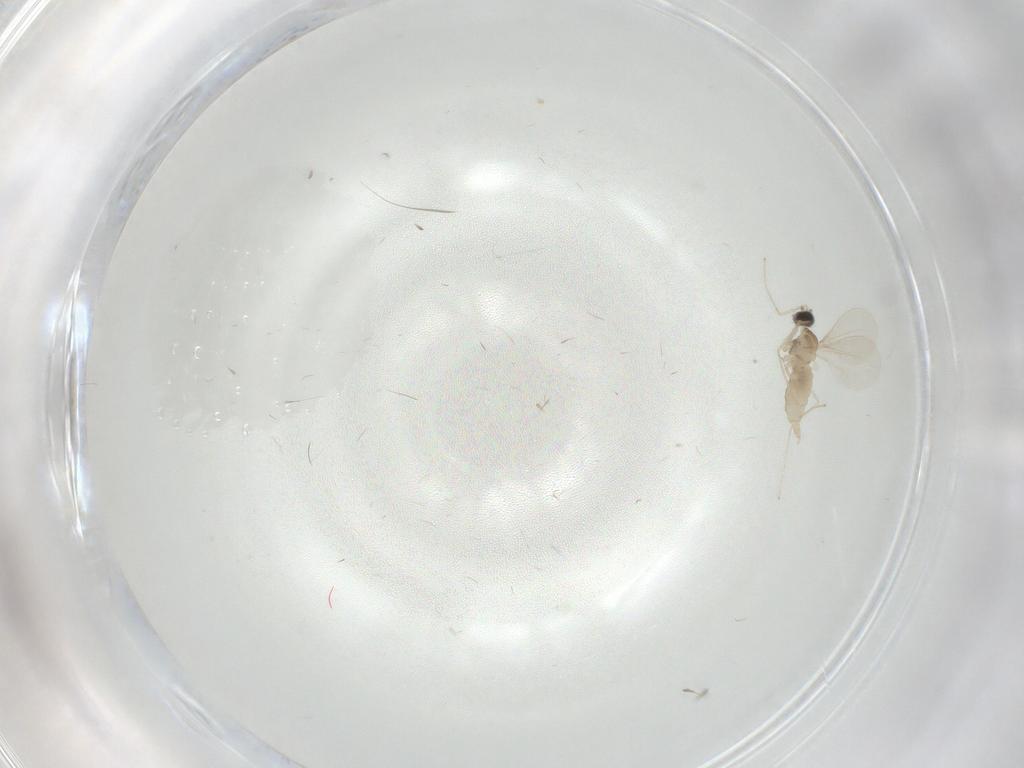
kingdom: Animalia
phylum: Arthropoda
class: Insecta
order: Diptera
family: Cecidomyiidae
